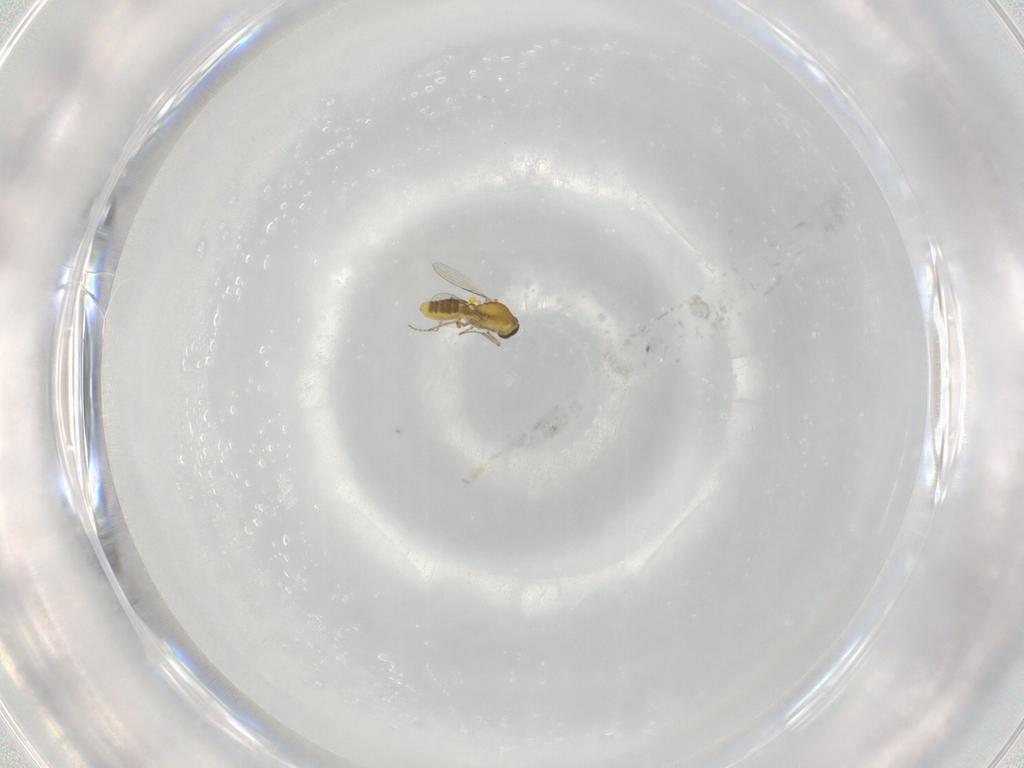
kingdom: Animalia
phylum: Arthropoda
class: Insecta
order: Diptera
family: Ceratopogonidae
